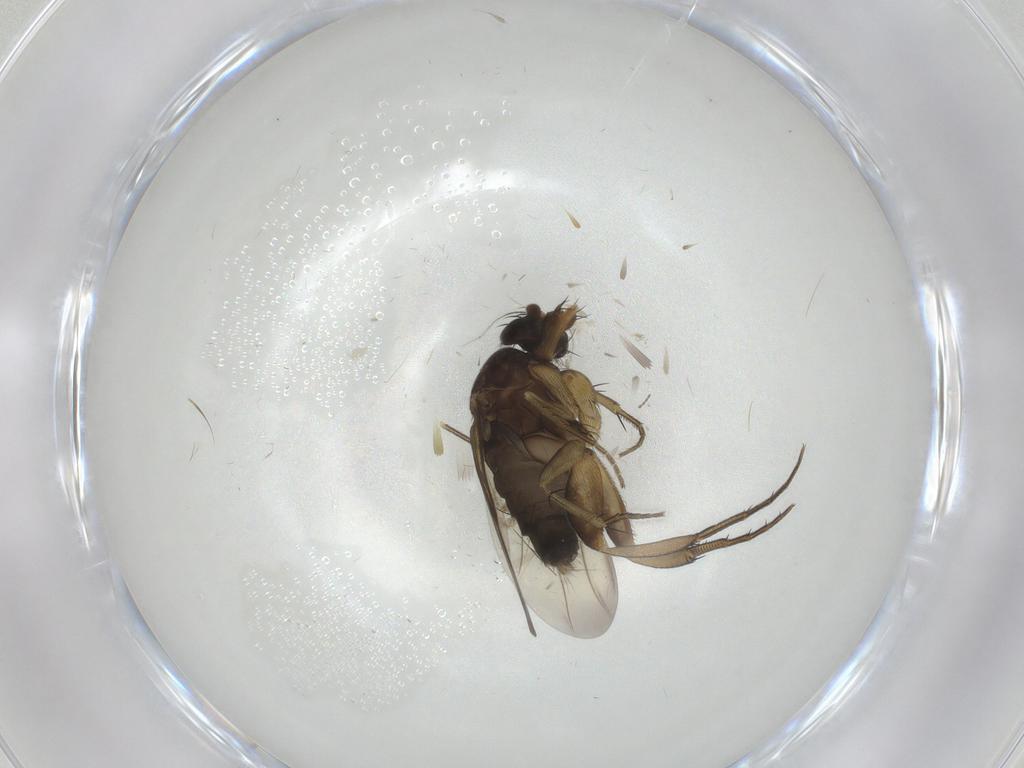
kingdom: Animalia
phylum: Arthropoda
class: Insecta
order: Diptera
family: Phoridae
